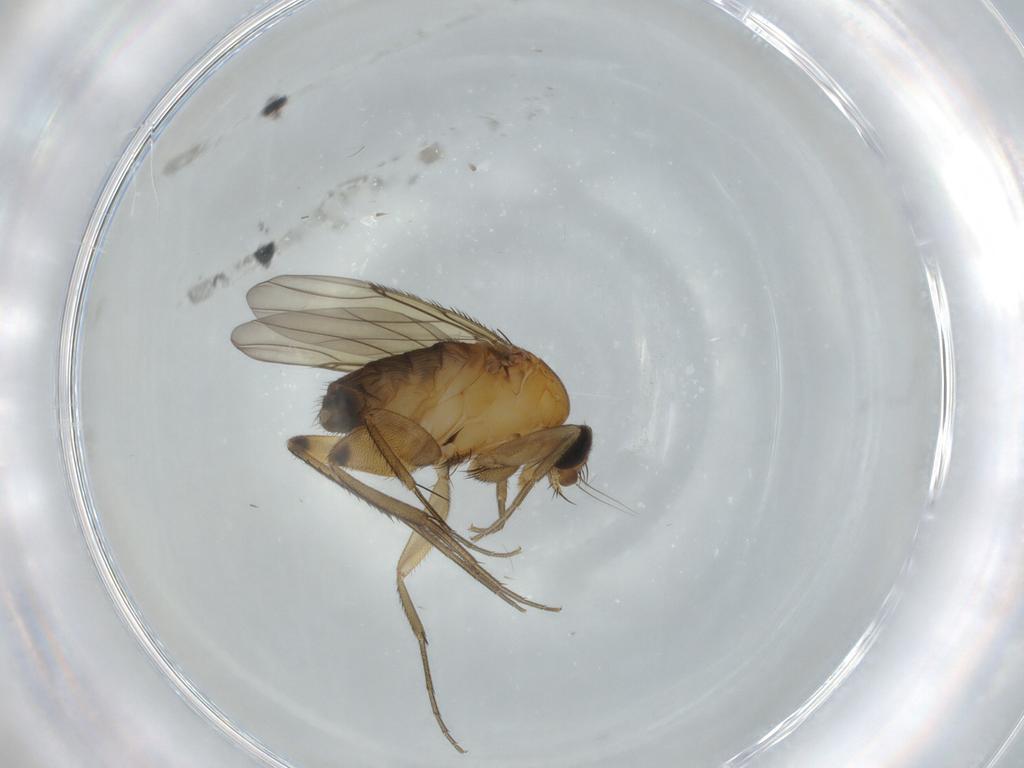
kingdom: Animalia
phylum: Arthropoda
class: Insecta
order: Diptera
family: Phoridae
